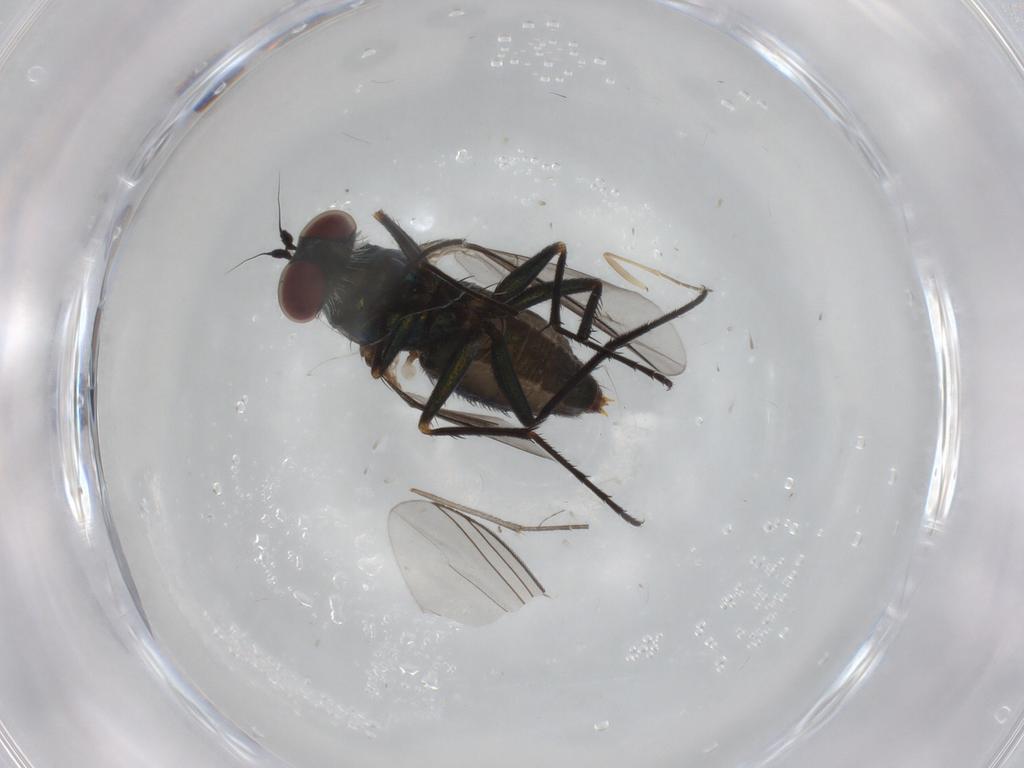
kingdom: Animalia
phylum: Arthropoda
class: Insecta
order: Diptera
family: Dolichopodidae
